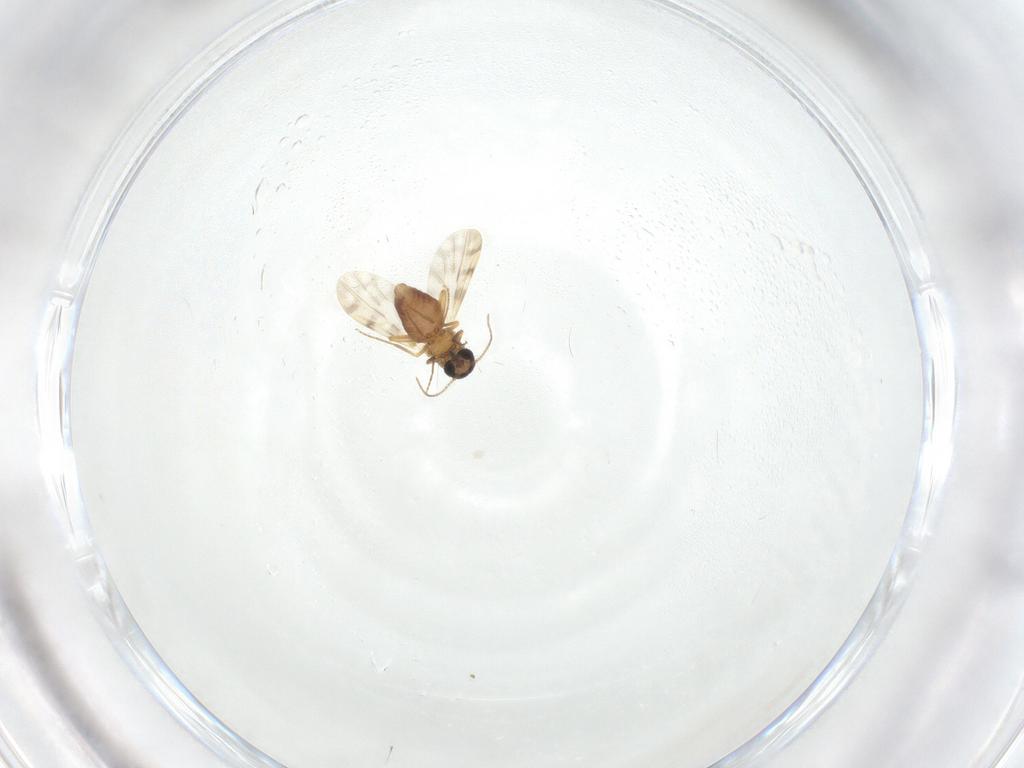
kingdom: Animalia
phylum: Arthropoda
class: Insecta
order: Diptera
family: Ceratopogonidae
